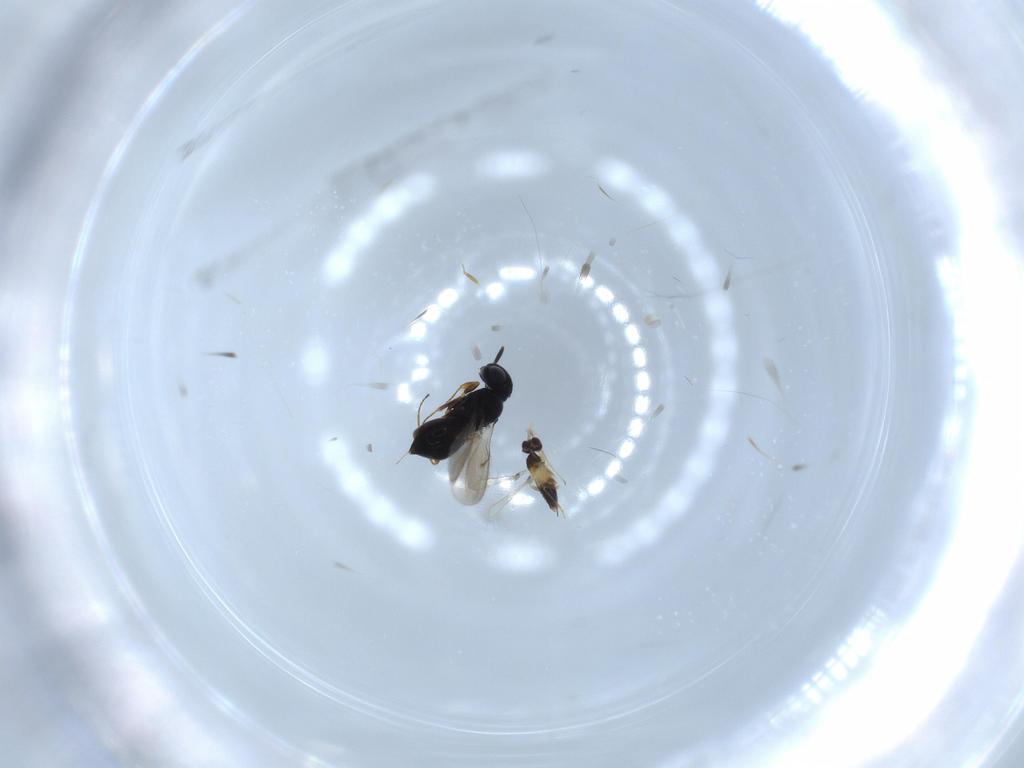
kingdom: Animalia
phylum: Arthropoda
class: Insecta
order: Hymenoptera
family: Scelionidae
